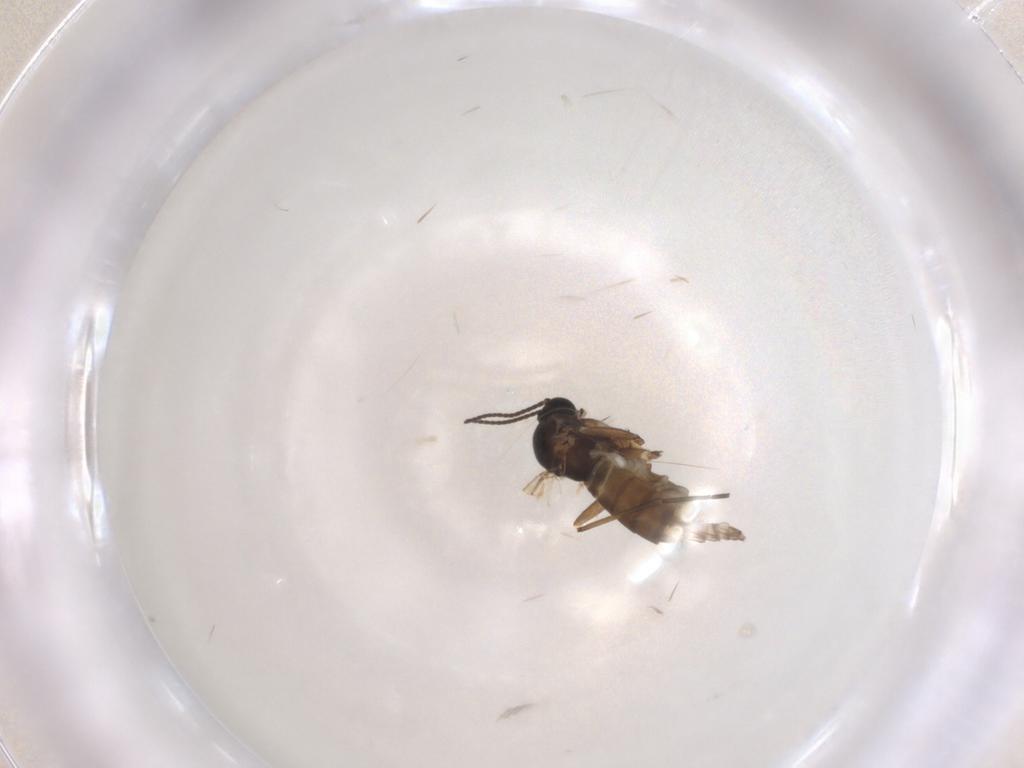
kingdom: Animalia
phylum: Arthropoda
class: Insecta
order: Diptera
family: Sciaridae
